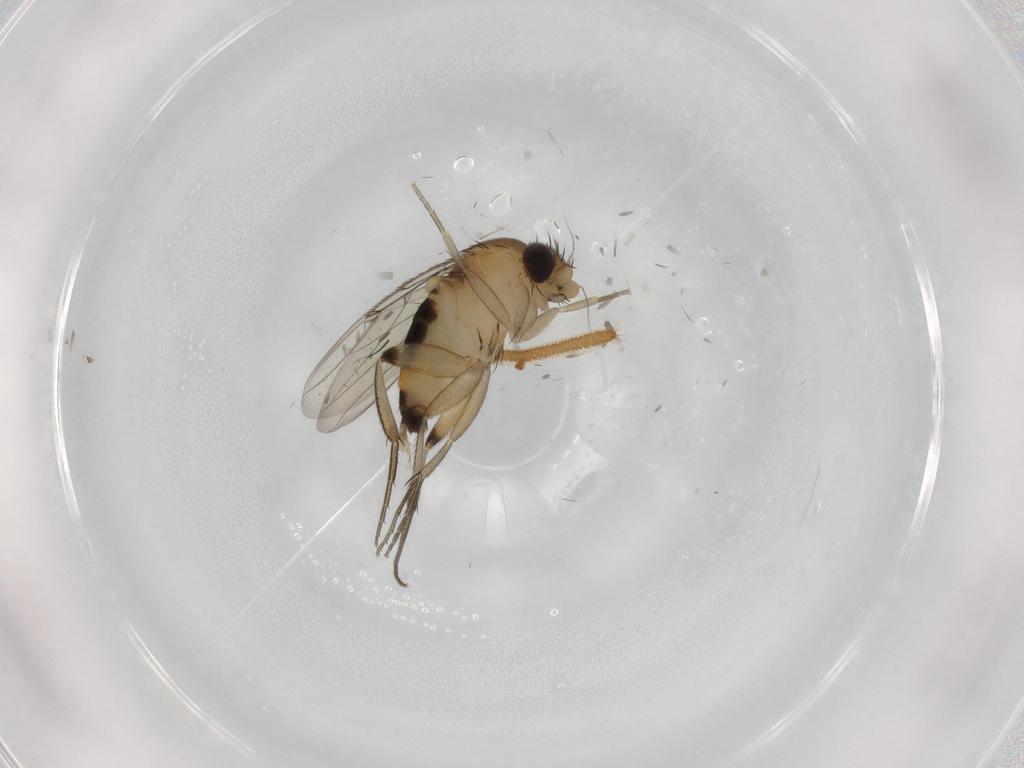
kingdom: Animalia
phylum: Arthropoda
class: Insecta
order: Diptera
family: Phoridae
